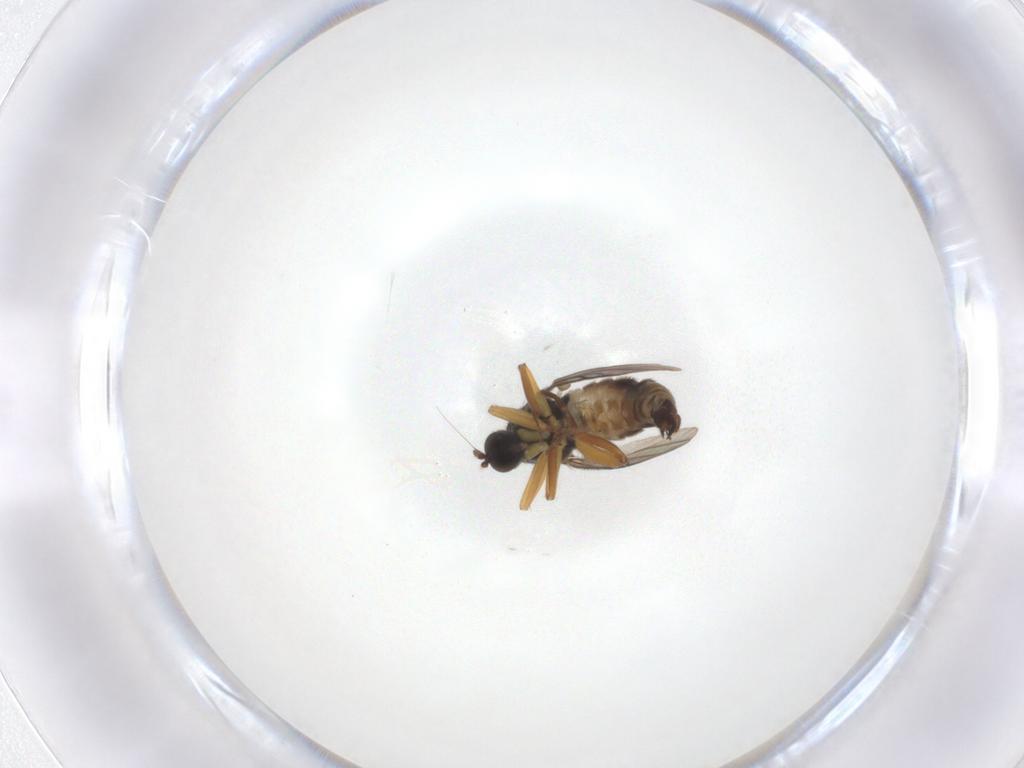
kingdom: Animalia
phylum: Arthropoda
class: Insecta
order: Diptera
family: Hybotidae
